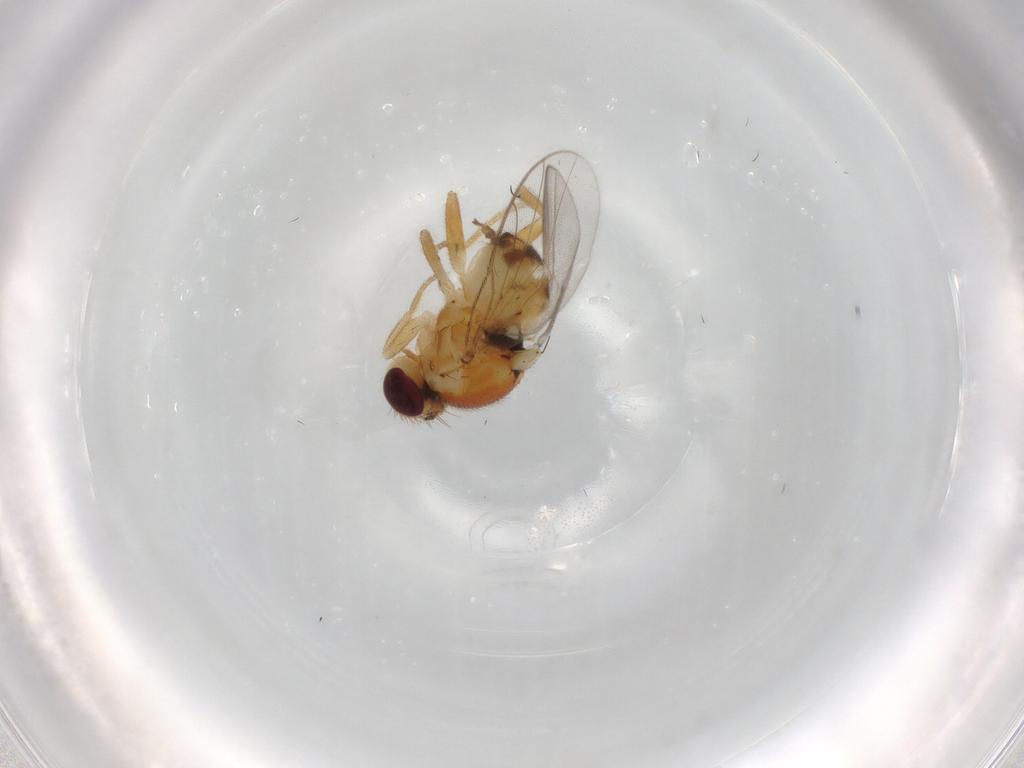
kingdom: Animalia
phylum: Arthropoda
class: Insecta
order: Diptera
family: Chloropidae
